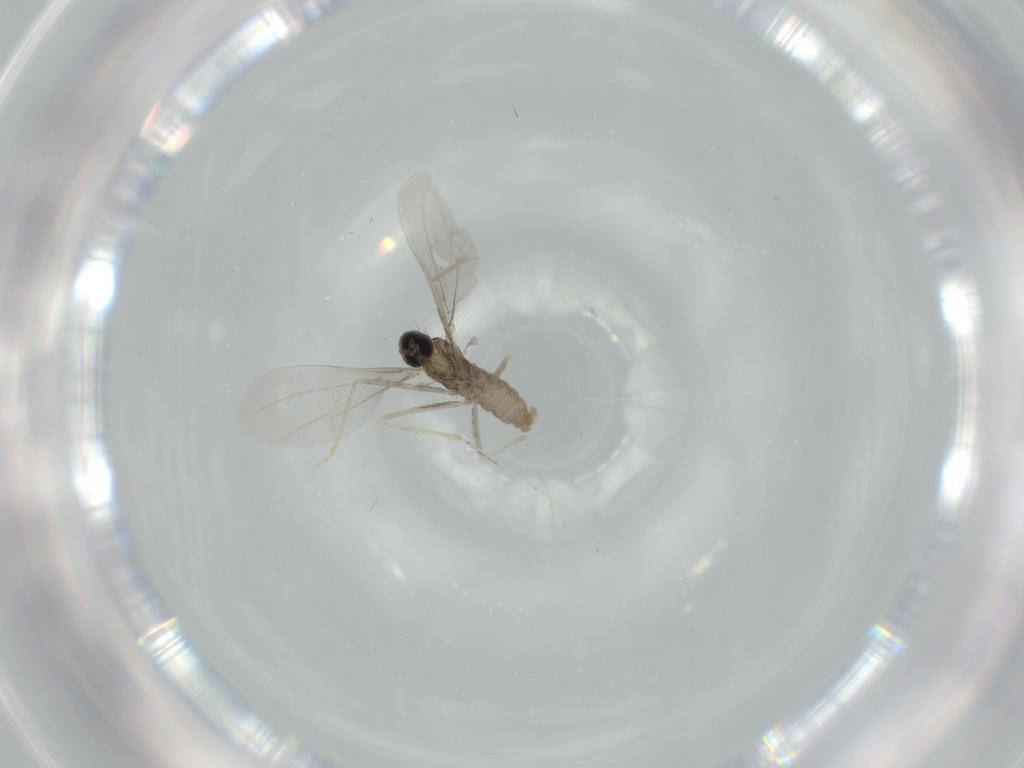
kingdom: Animalia
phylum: Arthropoda
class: Insecta
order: Diptera
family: Cecidomyiidae
